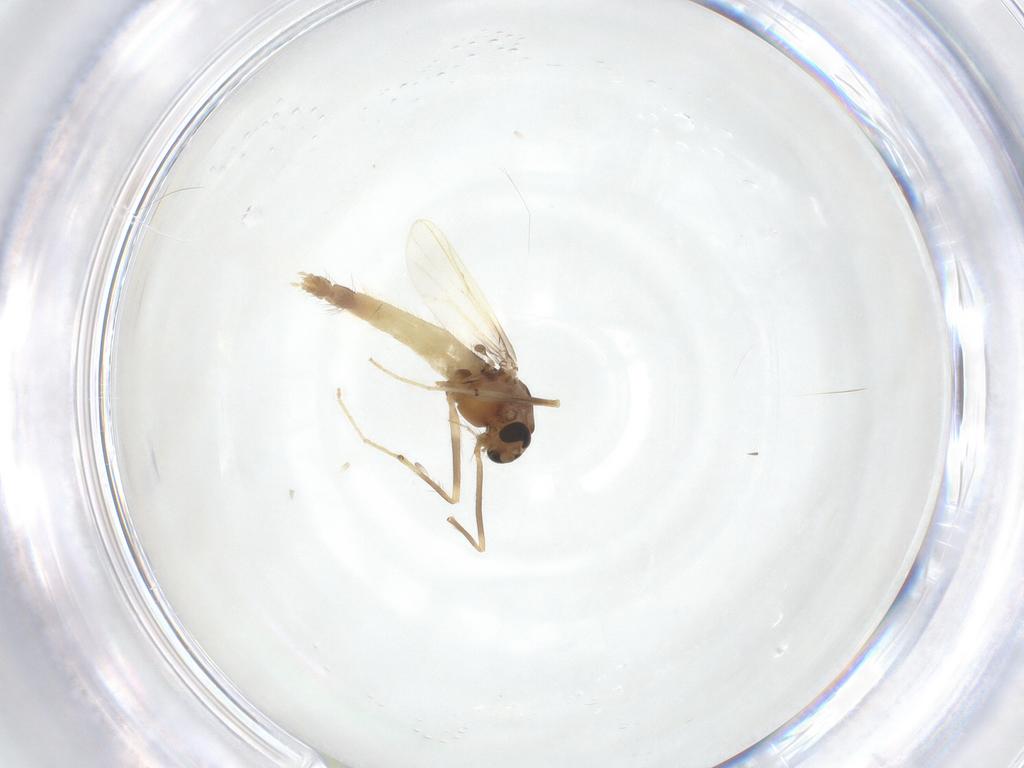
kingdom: Animalia
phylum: Arthropoda
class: Insecta
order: Diptera
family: Chironomidae
